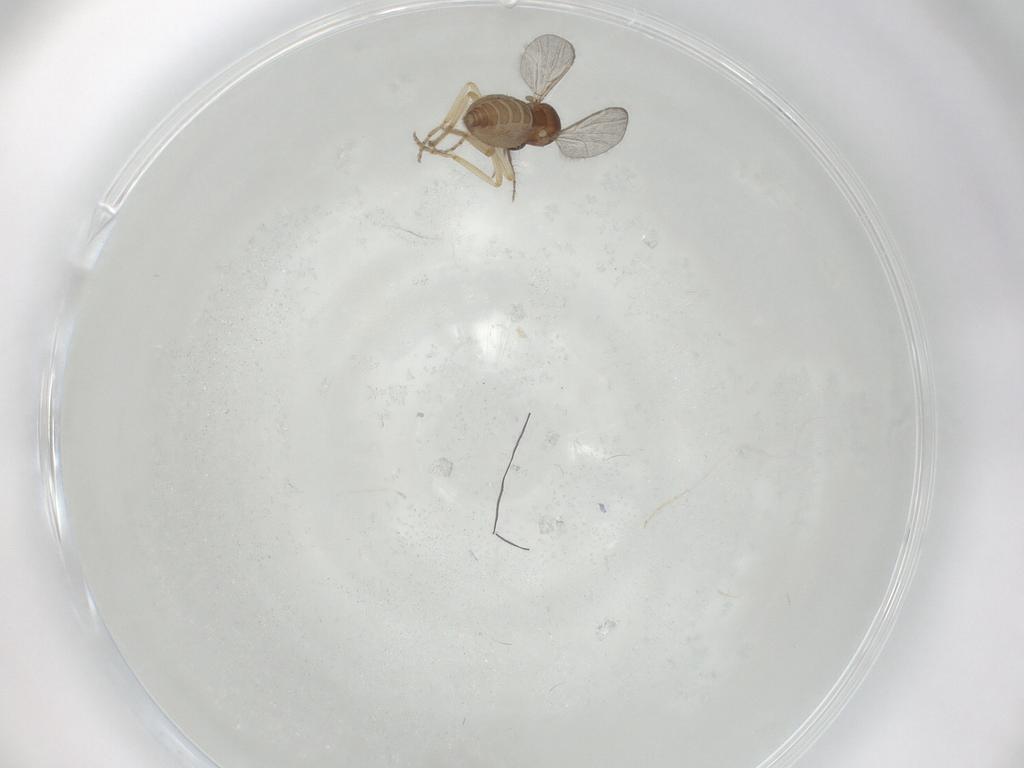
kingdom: Animalia
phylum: Arthropoda
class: Insecta
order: Diptera
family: Ceratopogonidae
